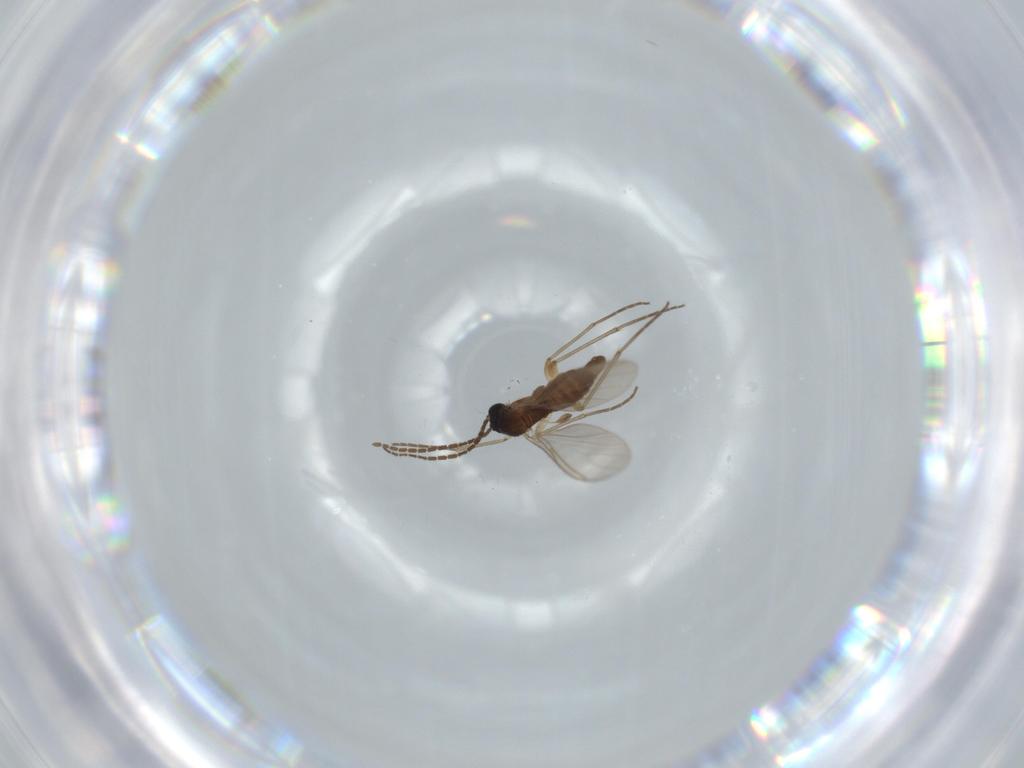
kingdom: Animalia
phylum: Arthropoda
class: Insecta
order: Diptera
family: Sciaridae
